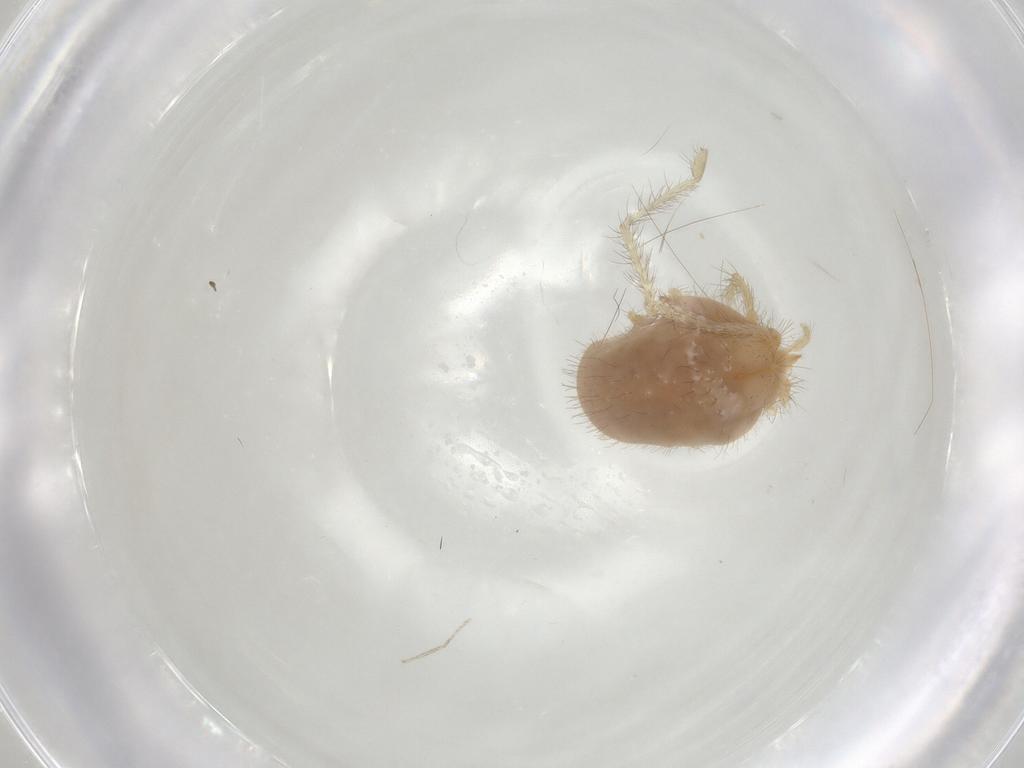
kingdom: Animalia
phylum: Arthropoda
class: Arachnida
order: Trombidiformes
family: Erythraeidae
